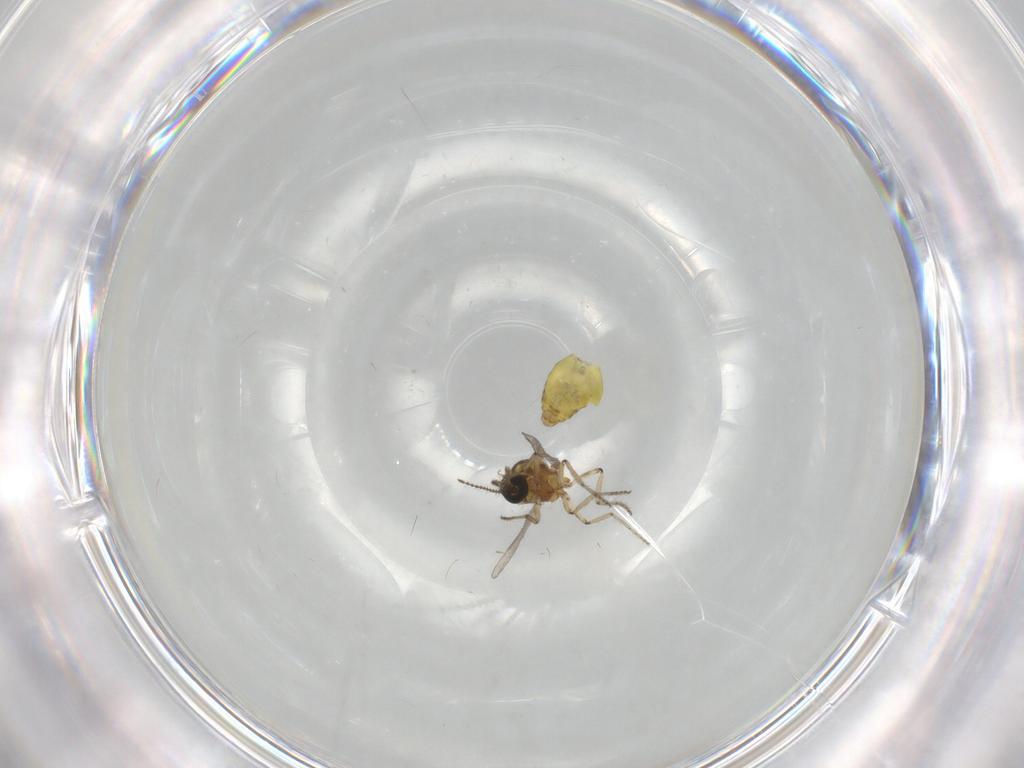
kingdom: Animalia
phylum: Arthropoda
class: Insecta
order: Diptera
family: Ceratopogonidae
